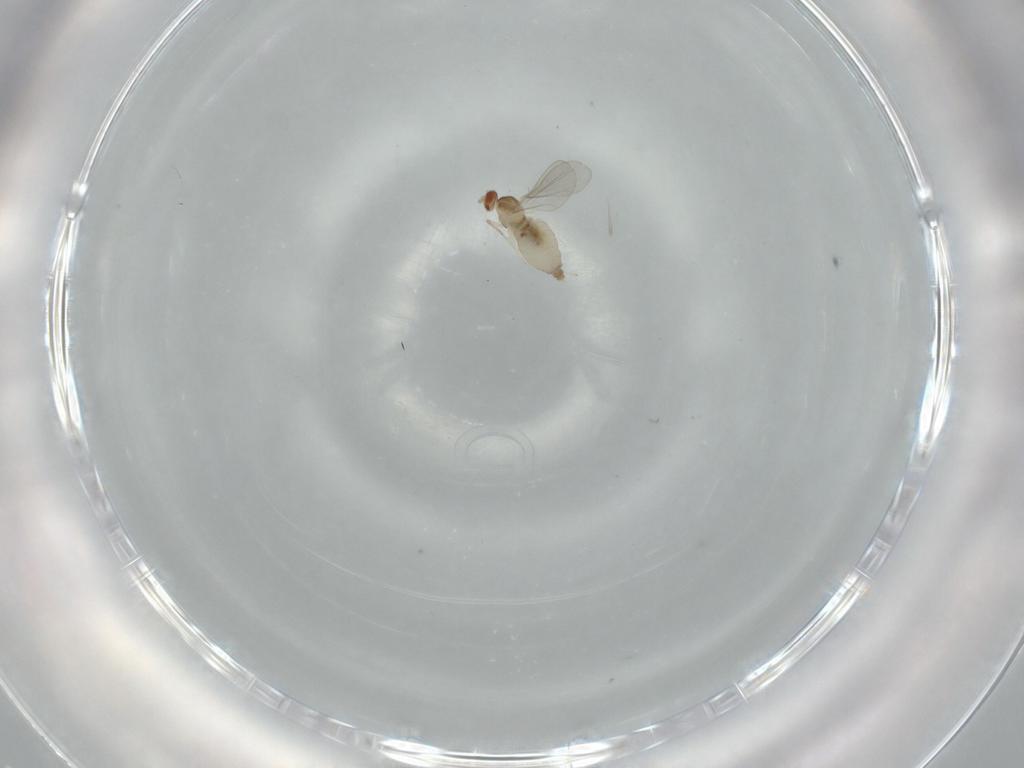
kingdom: Animalia
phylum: Arthropoda
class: Insecta
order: Diptera
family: Cecidomyiidae
